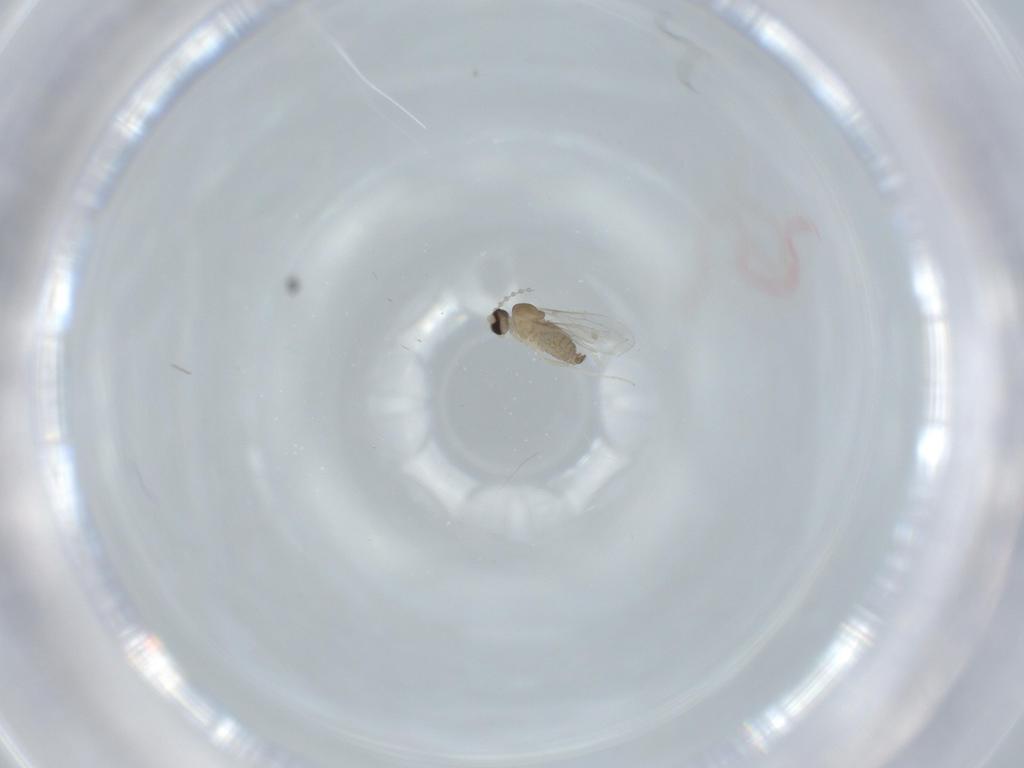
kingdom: Animalia
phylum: Arthropoda
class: Insecta
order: Diptera
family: Cecidomyiidae
